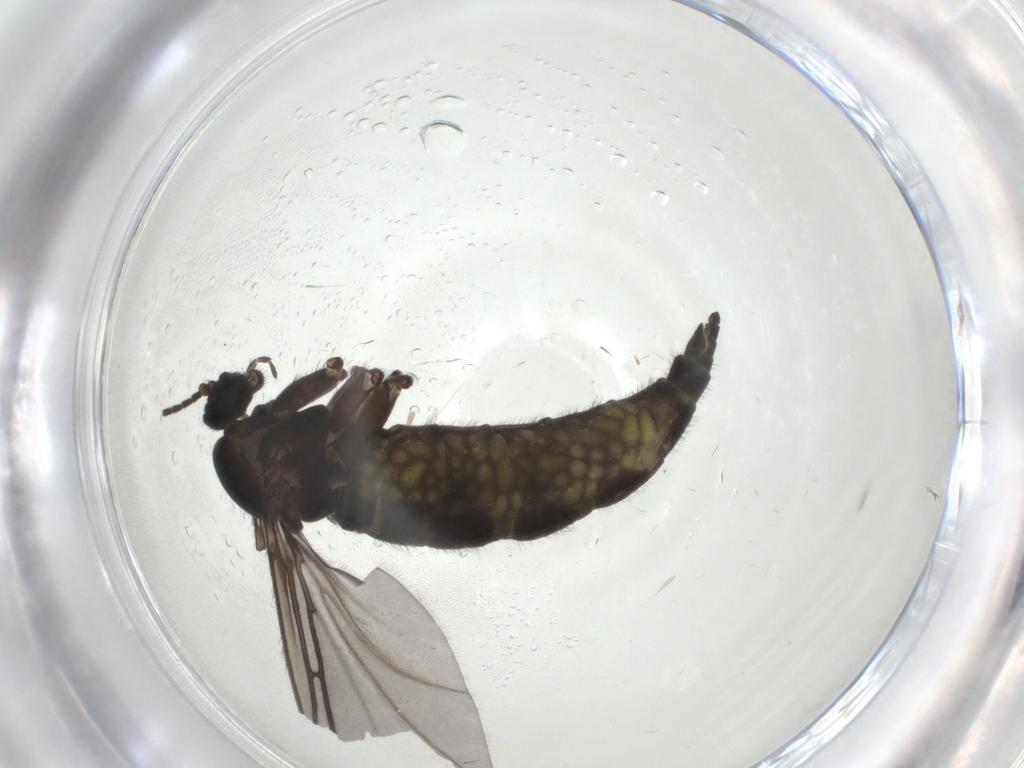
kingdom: Animalia
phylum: Arthropoda
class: Insecta
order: Diptera
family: Sciaridae
